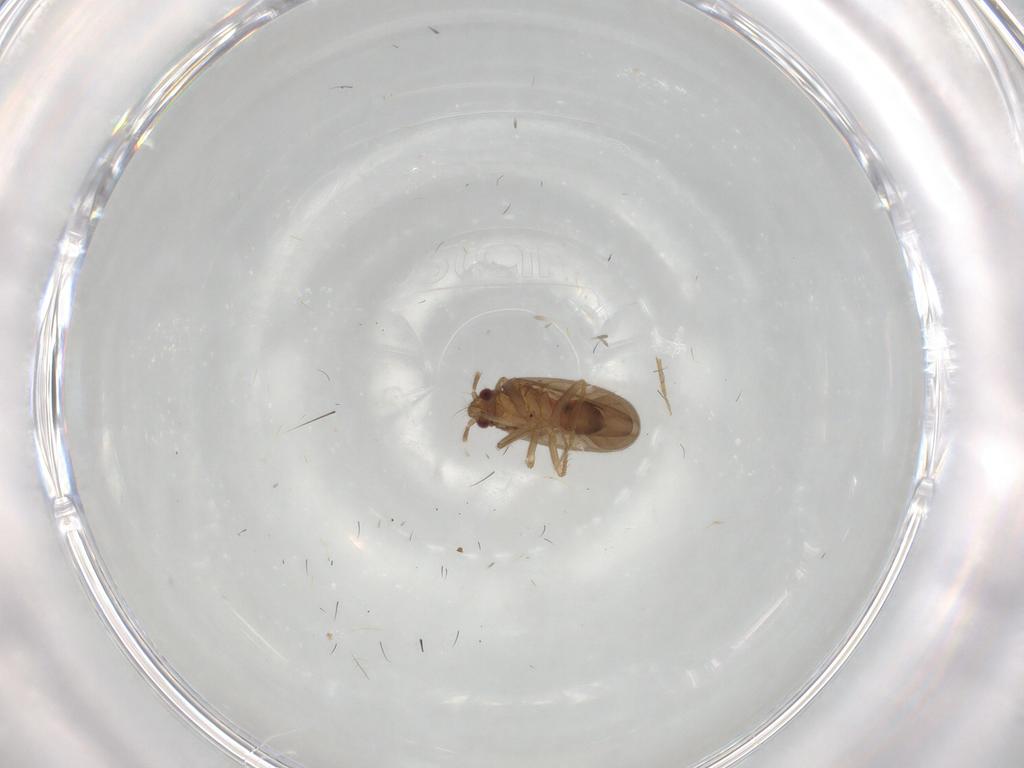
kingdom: Animalia
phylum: Arthropoda
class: Insecta
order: Hemiptera
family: Ceratocombidae
